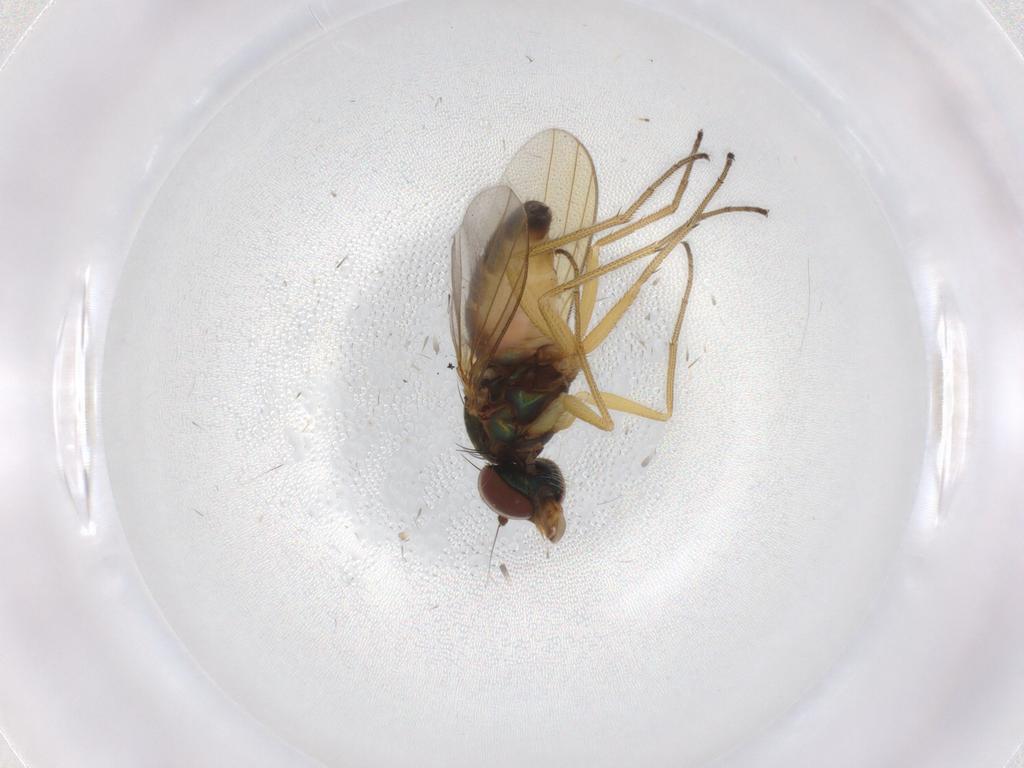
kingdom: Animalia
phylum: Arthropoda
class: Insecta
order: Diptera
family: Dolichopodidae
